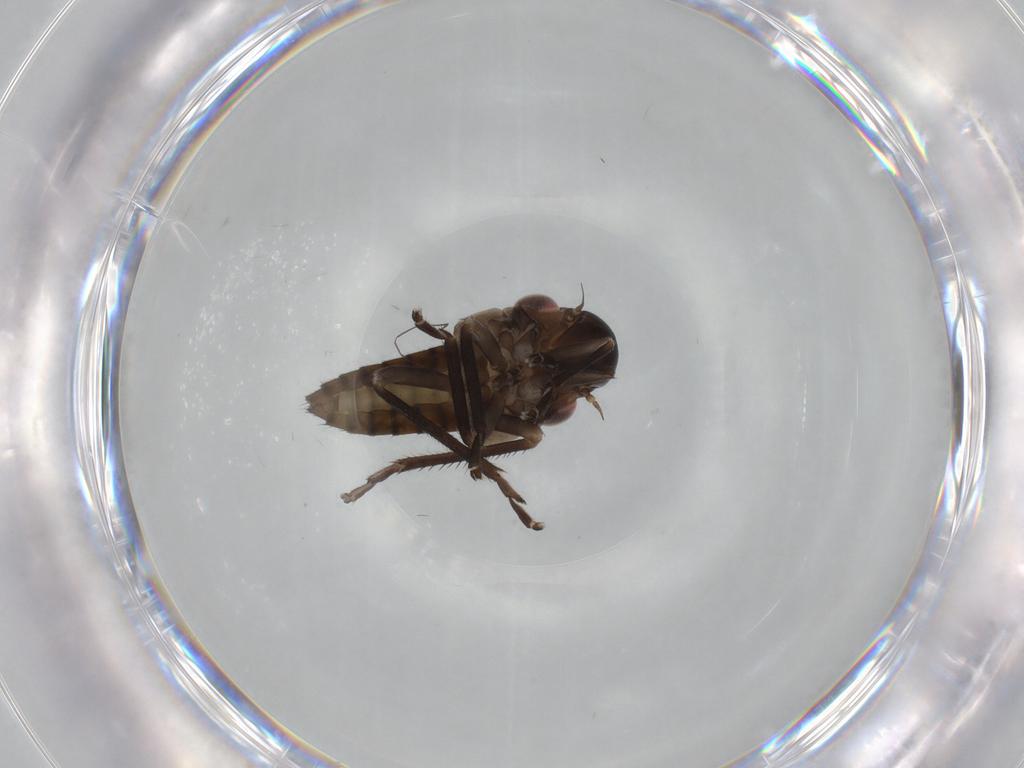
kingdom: Animalia
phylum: Arthropoda
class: Insecta
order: Hemiptera
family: Cicadellidae
